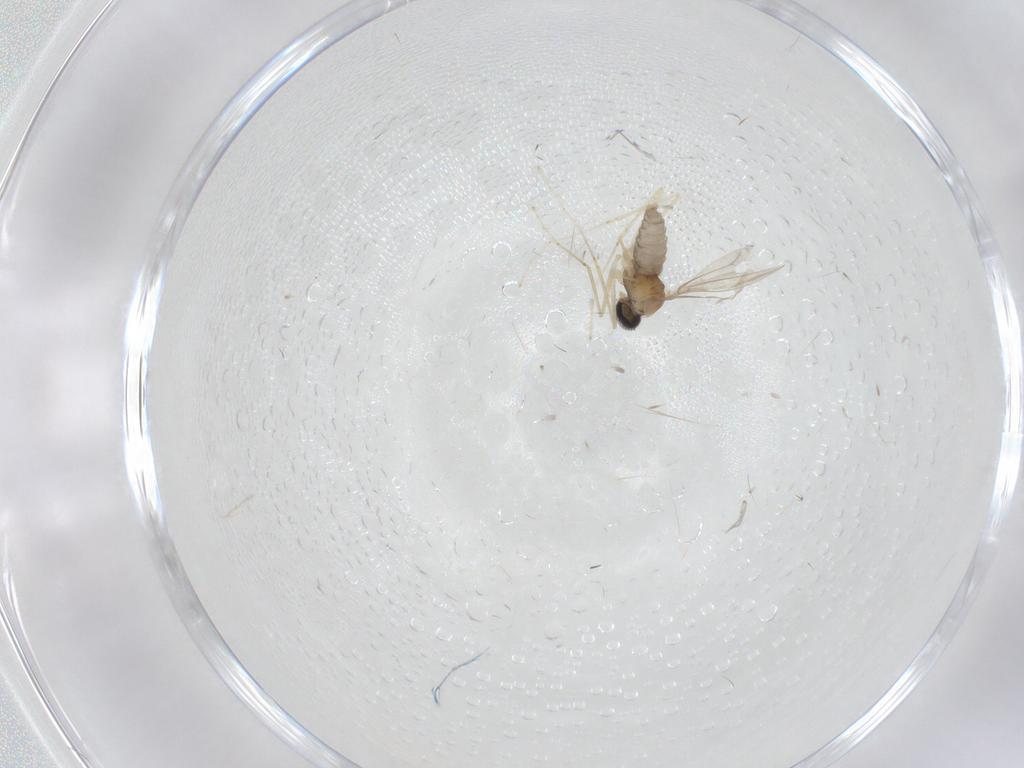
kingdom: Animalia
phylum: Arthropoda
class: Insecta
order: Diptera
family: Cecidomyiidae
